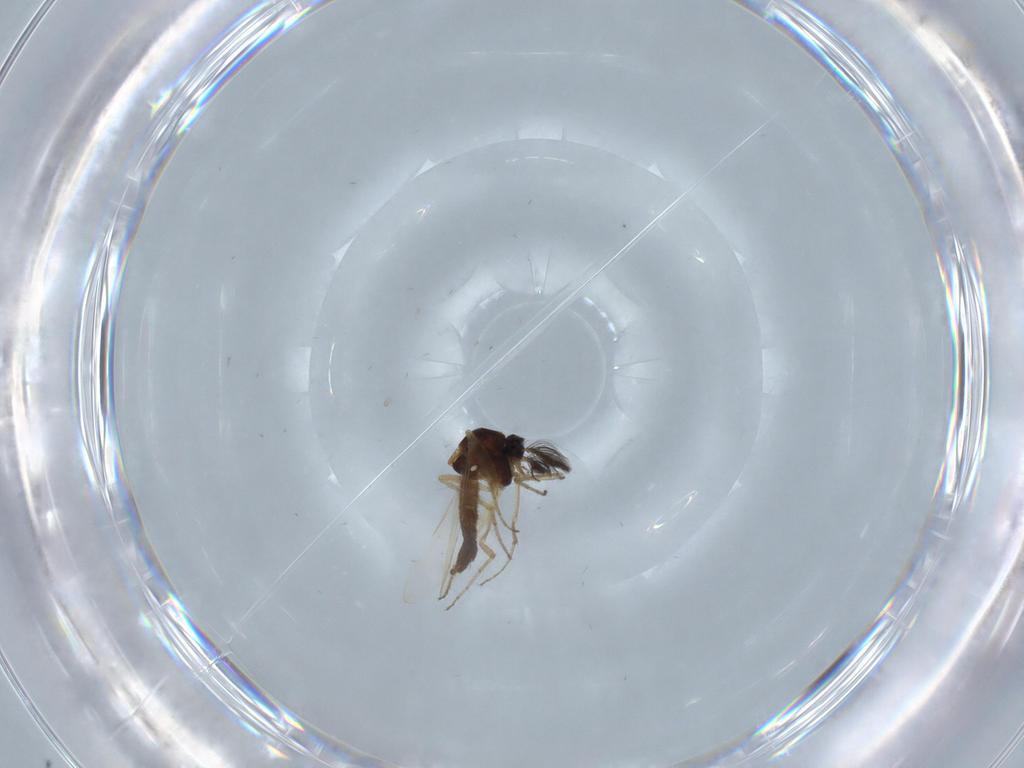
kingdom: Animalia
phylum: Arthropoda
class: Insecta
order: Diptera
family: Ceratopogonidae
